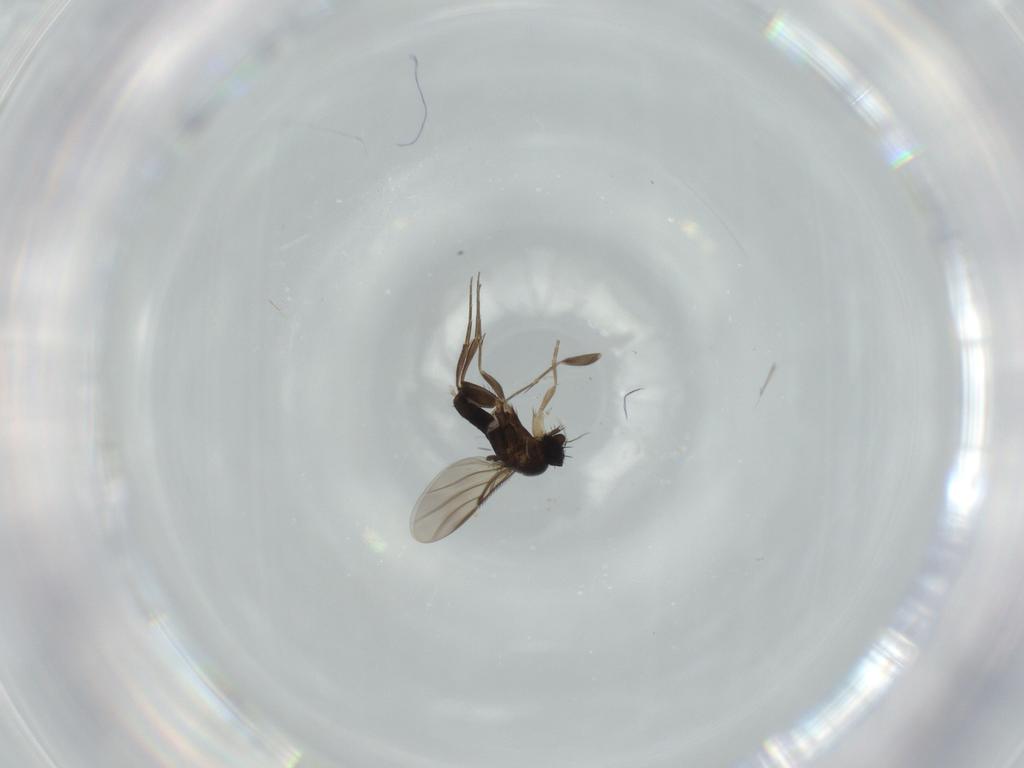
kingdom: Animalia
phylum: Arthropoda
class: Insecta
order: Diptera
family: Phoridae
